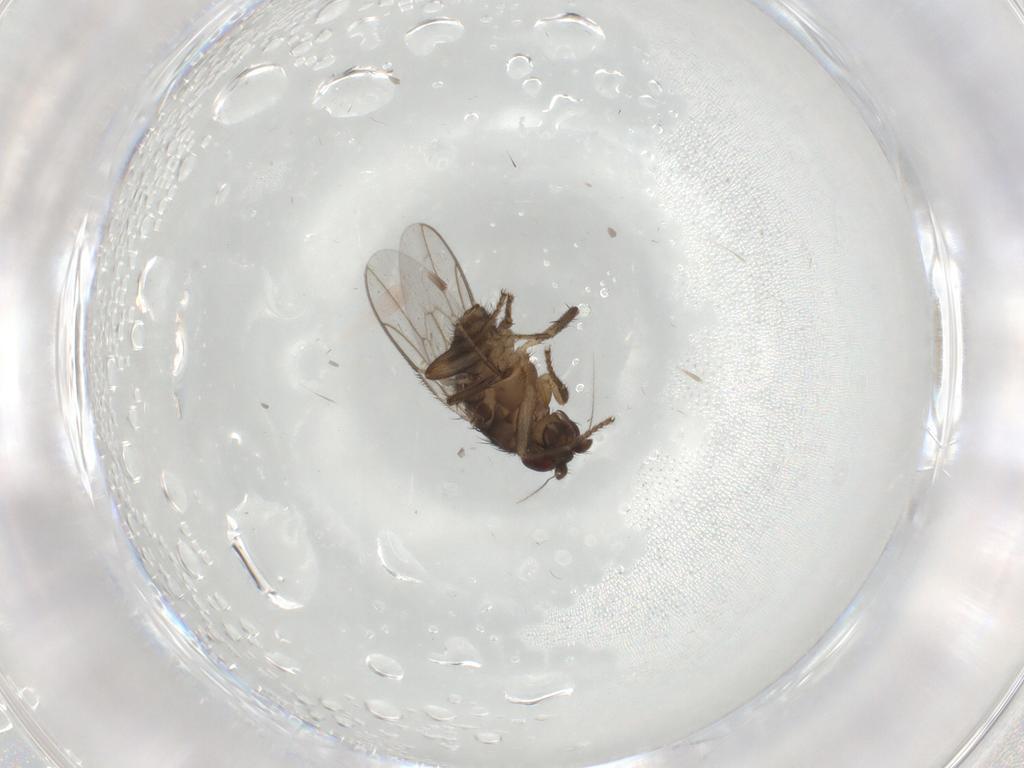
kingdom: Animalia
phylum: Arthropoda
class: Insecta
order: Diptera
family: Sphaeroceridae
